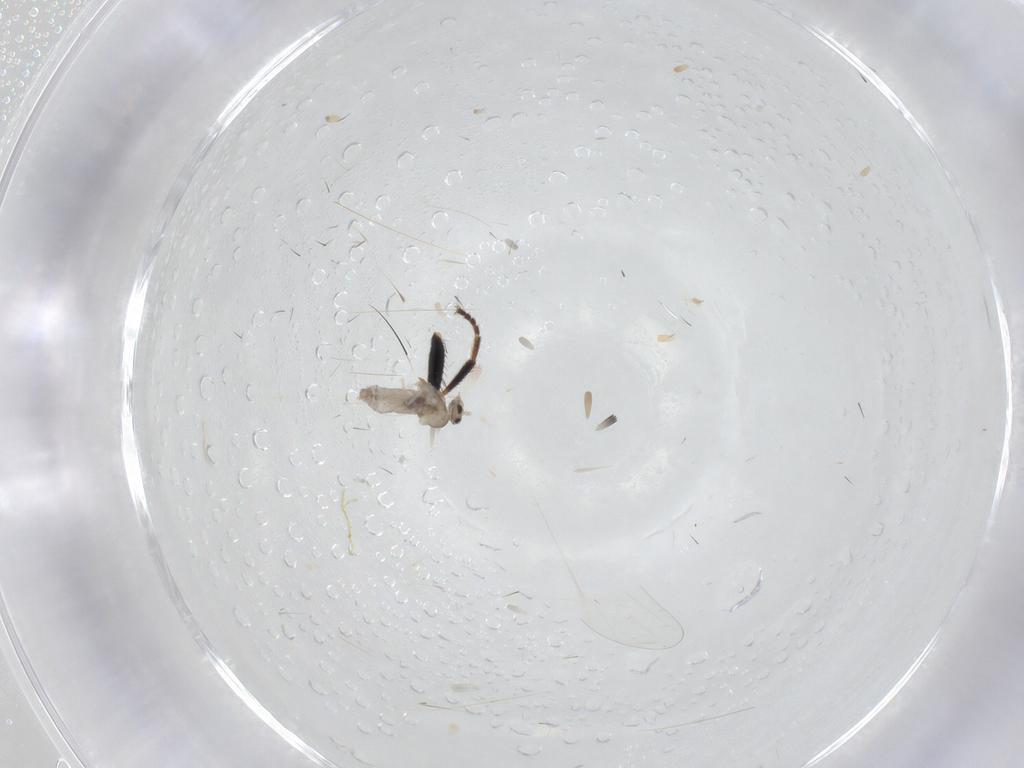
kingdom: Animalia
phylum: Arthropoda
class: Insecta
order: Diptera
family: Sphaeroceridae
